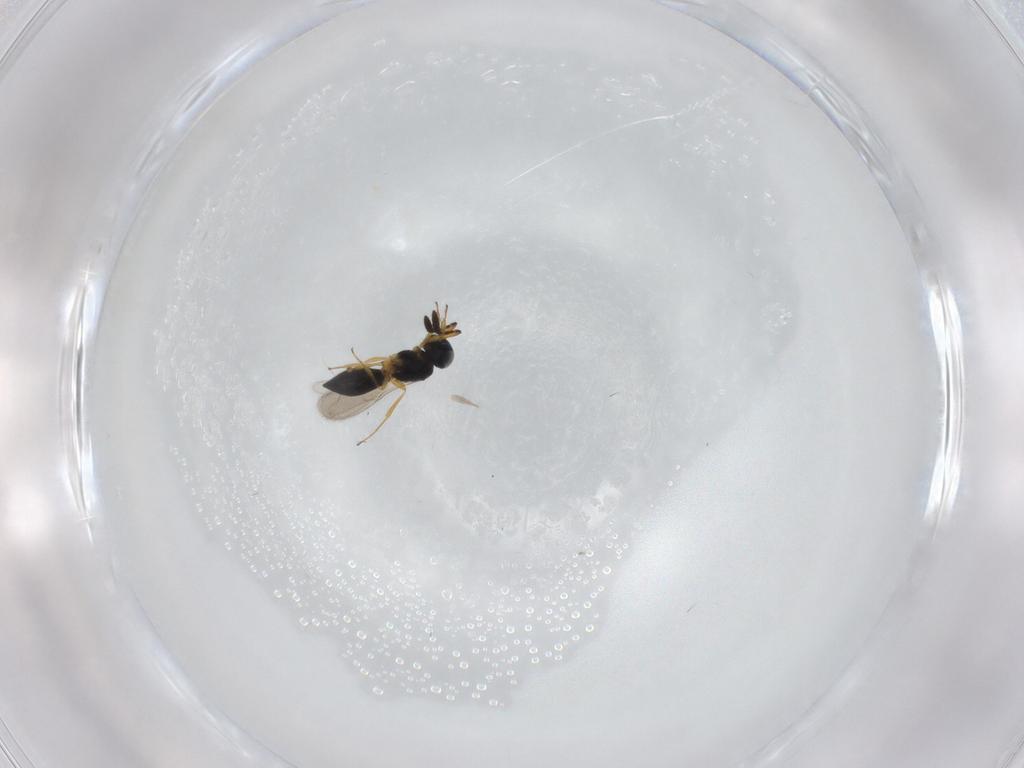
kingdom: Animalia
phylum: Arthropoda
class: Insecta
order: Hymenoptera
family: Scelionidae
